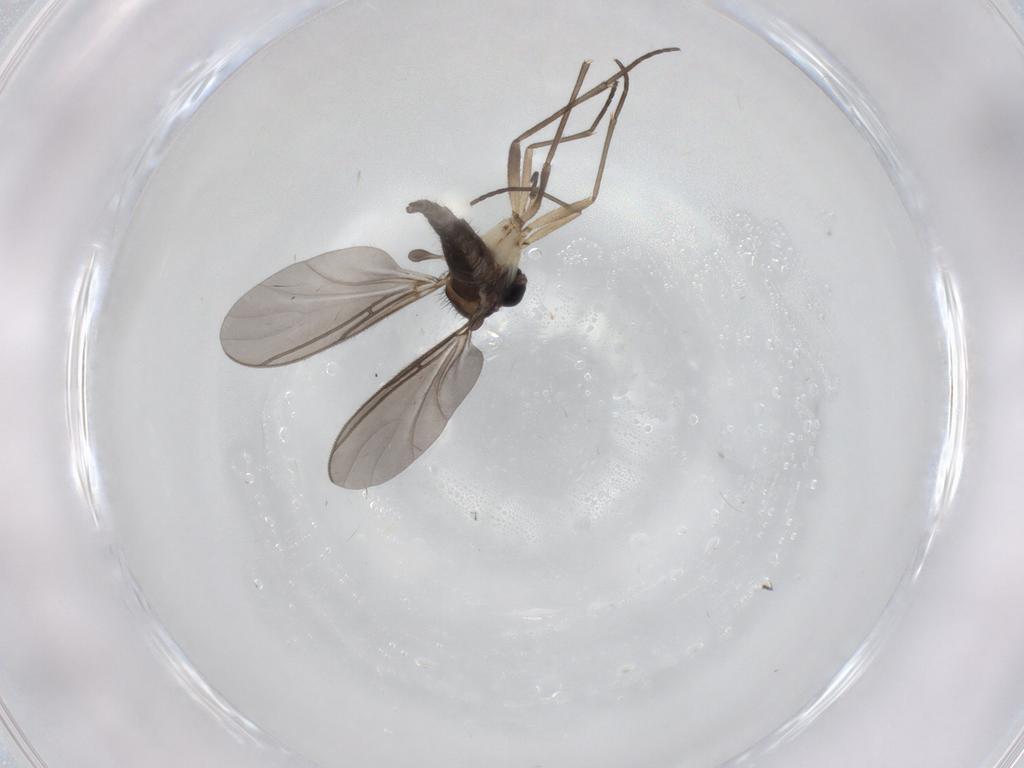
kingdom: Animalia
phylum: Arthropoda
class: Insecta
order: Diptera
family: Sciaridae
